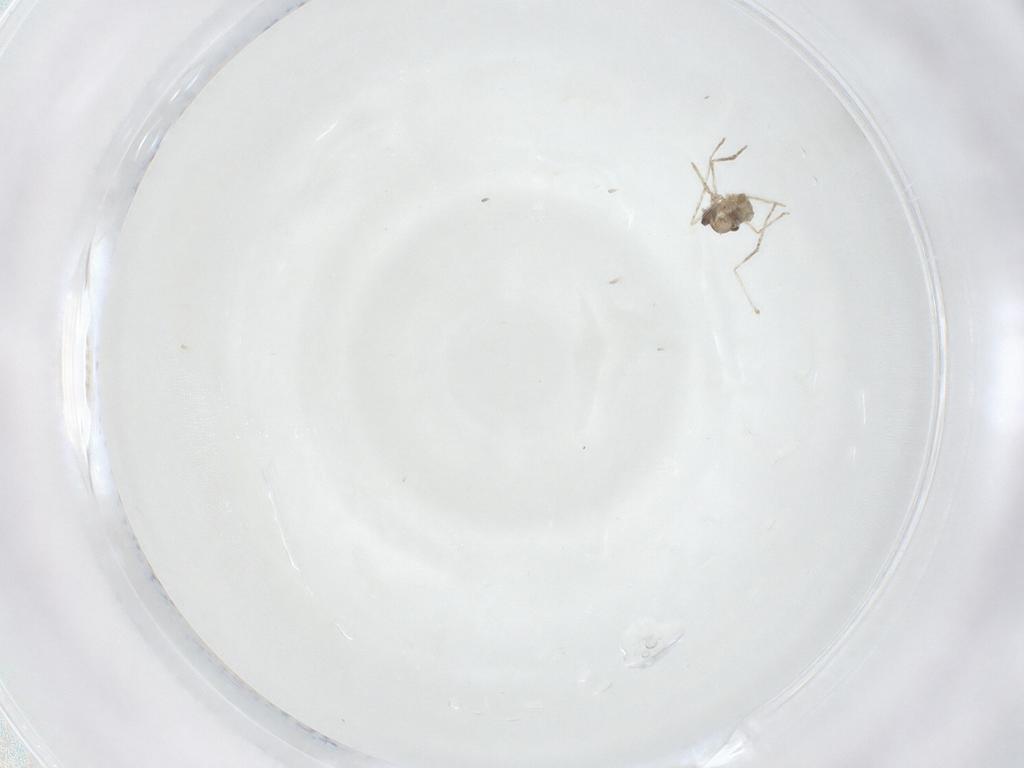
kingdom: Animalia
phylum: Arthropoda
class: Insecta
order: Diptera
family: Cecidomyiidae
